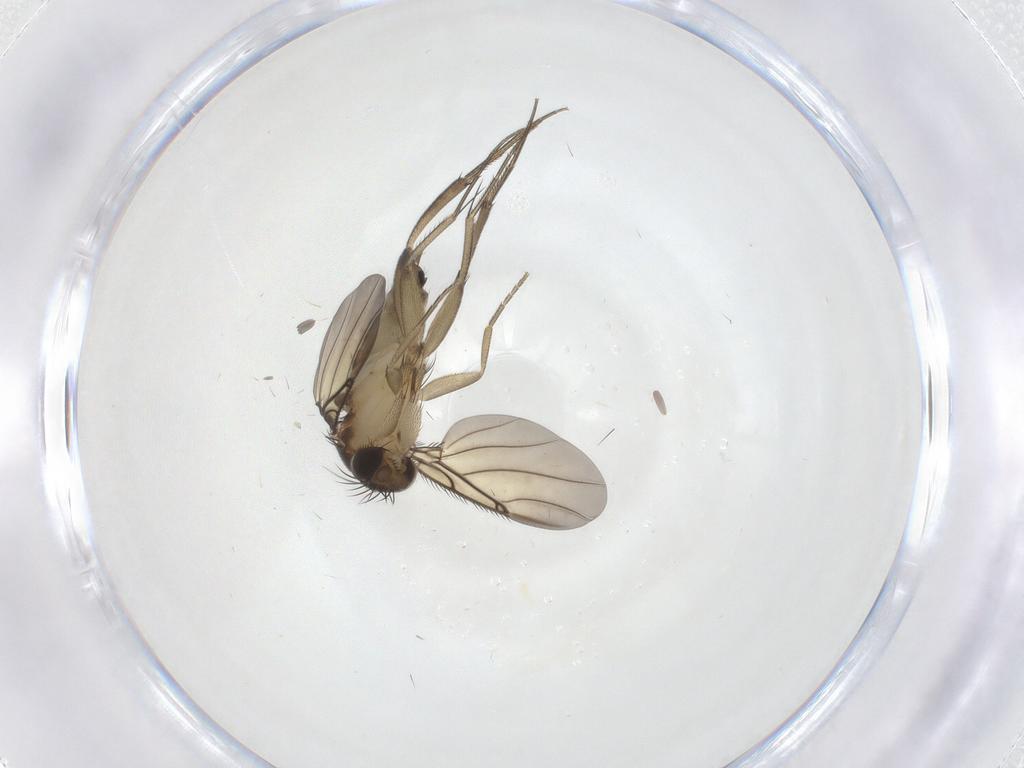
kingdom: Animalia
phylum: Arthropoda
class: Insecta
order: Diptera
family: Phoridae
